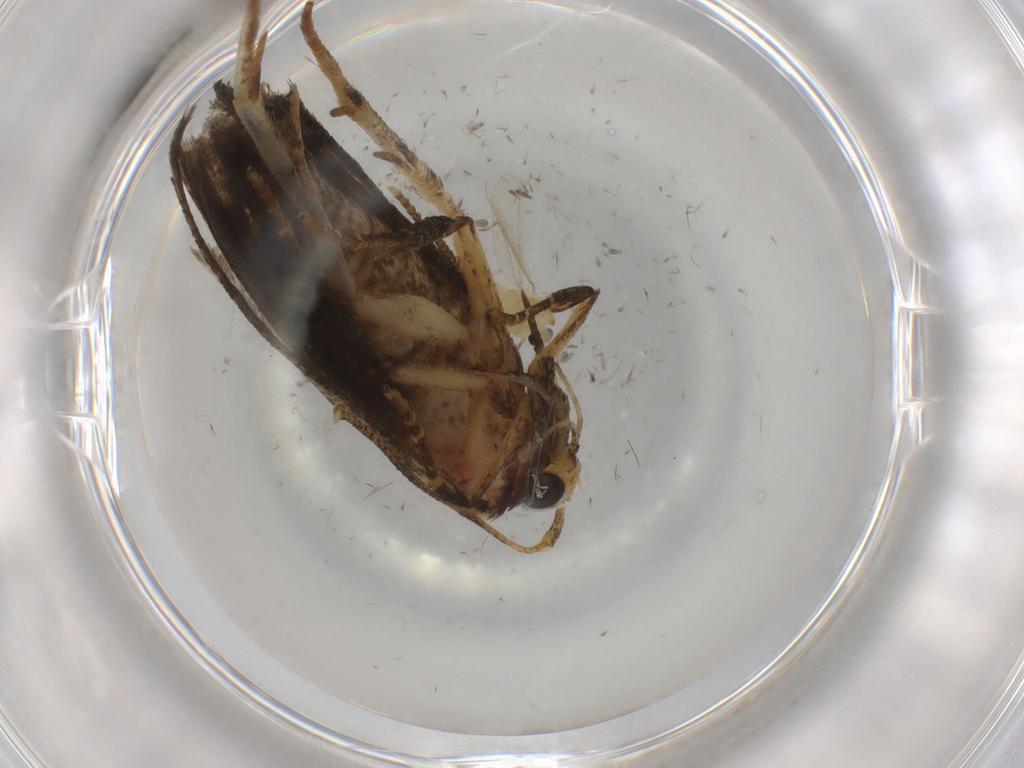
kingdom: Animalia
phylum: Arthropoda
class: Insecta
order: Lepidoptera
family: Autostichidae
